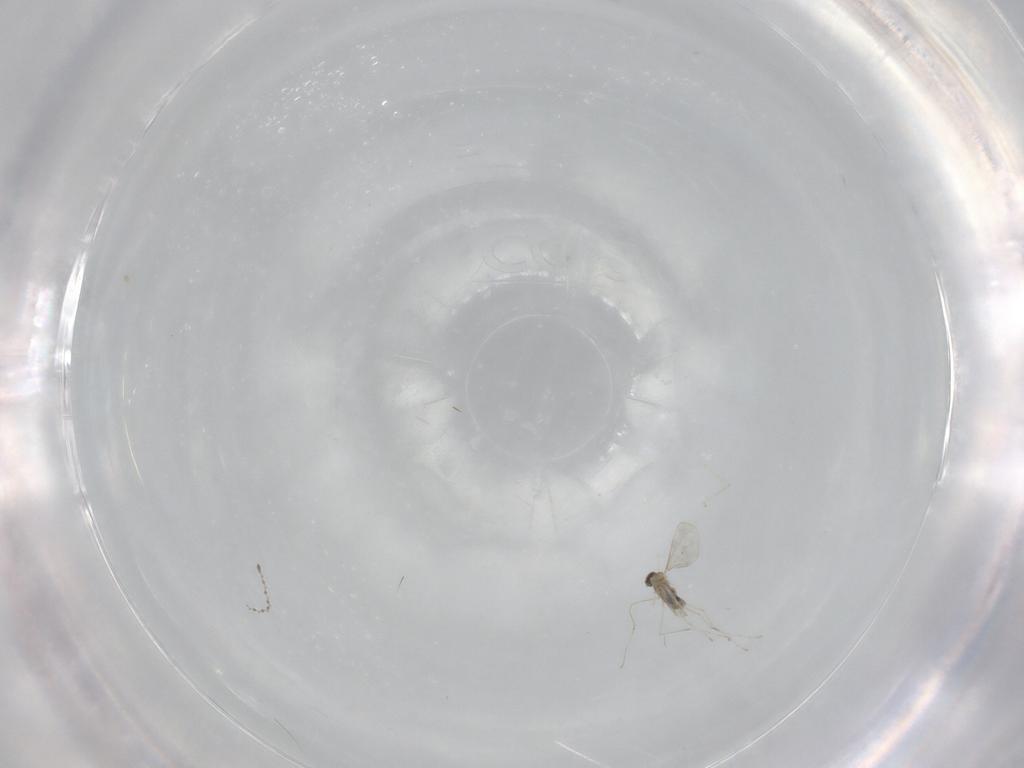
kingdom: Animalia
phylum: Arthropoda
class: Insecta
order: Diptera
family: Cecidomyiidae
